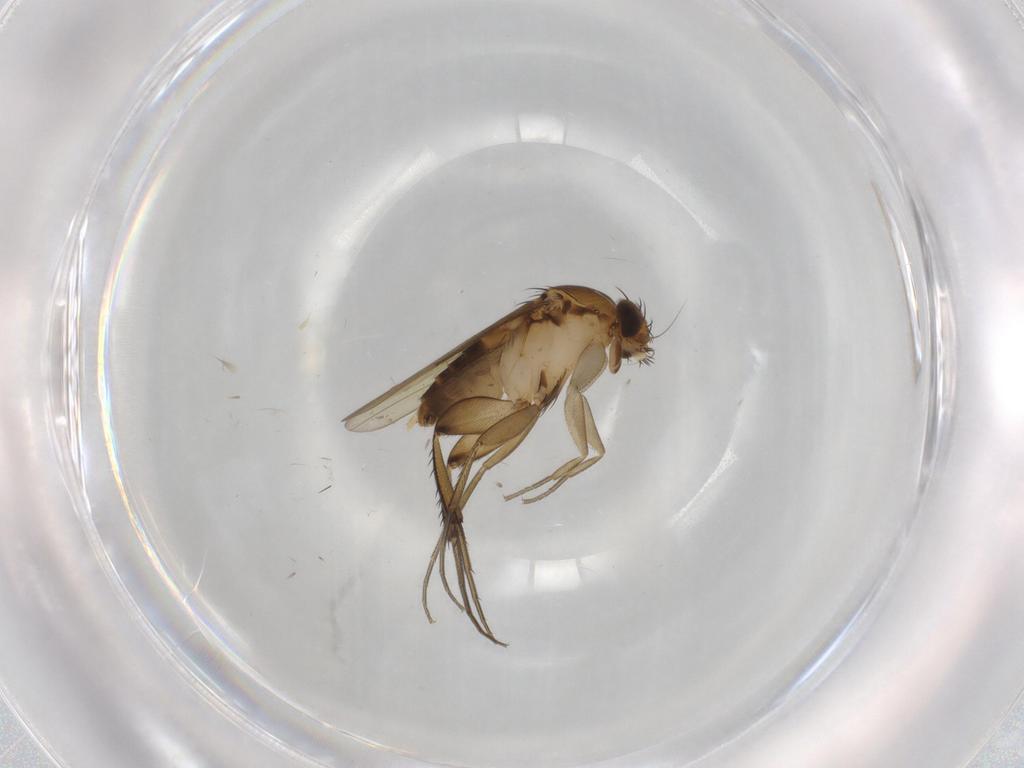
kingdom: Animalia
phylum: Arthropoda
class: Insecta
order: Diptera
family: Phoridae
